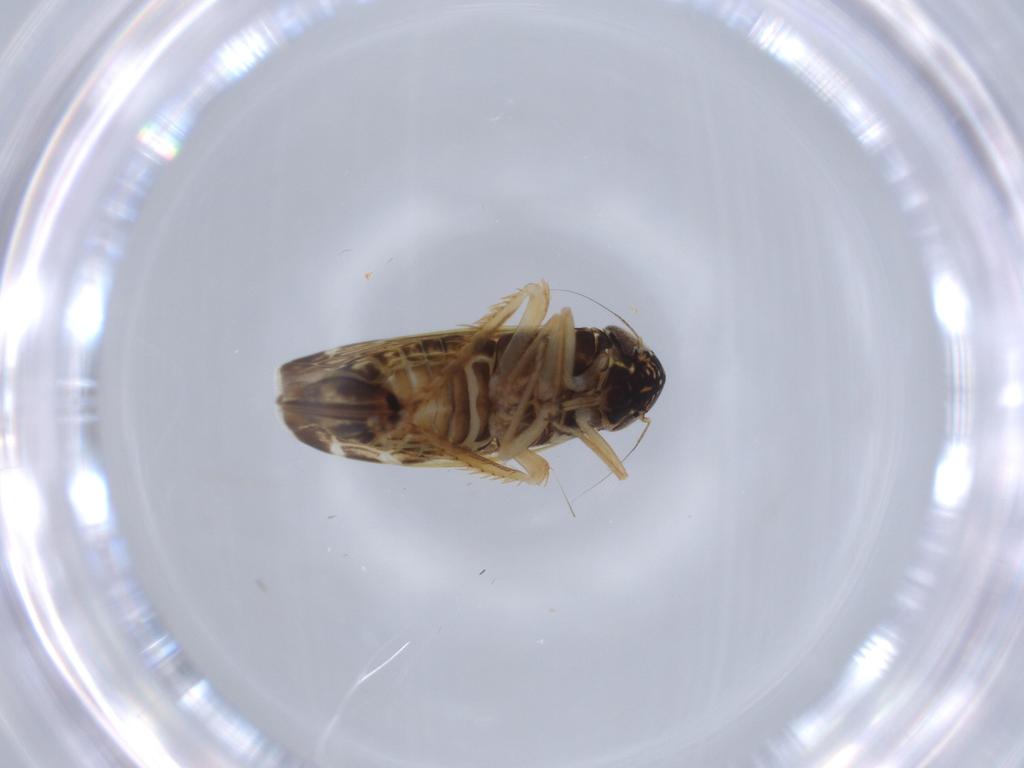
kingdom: Animalia
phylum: Arthropoda
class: Insecta
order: Hemiptera
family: Cicadellidae
